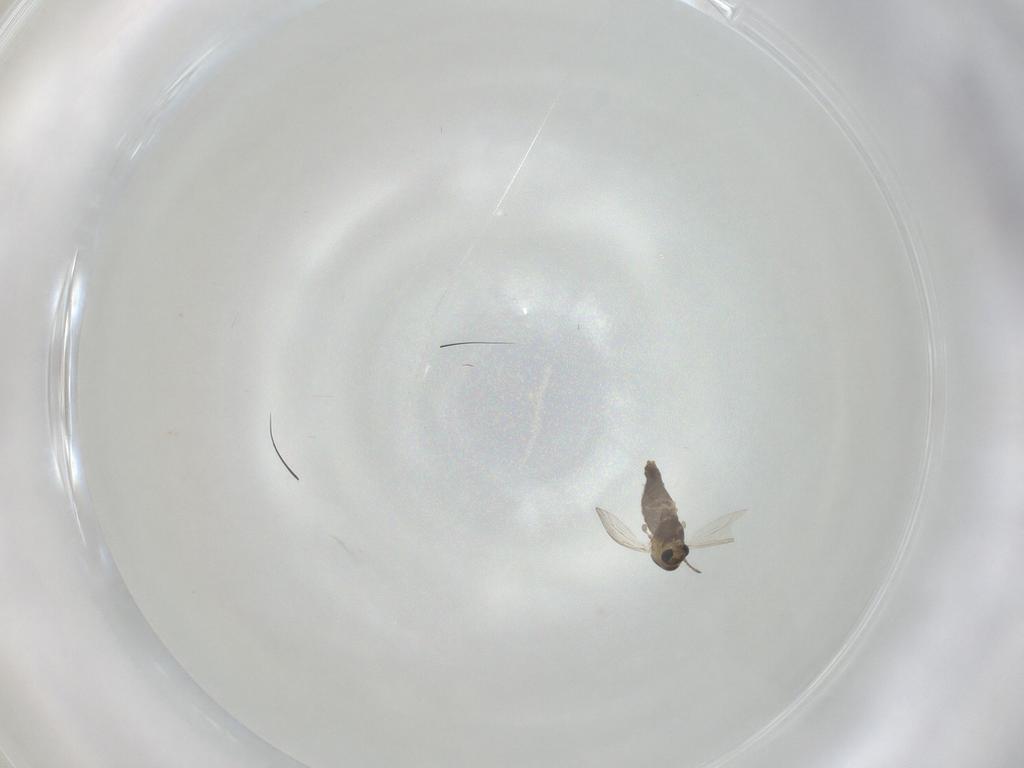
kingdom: Animalia
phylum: Arthropoda
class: Insecta
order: Diptera
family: Chironomidae
